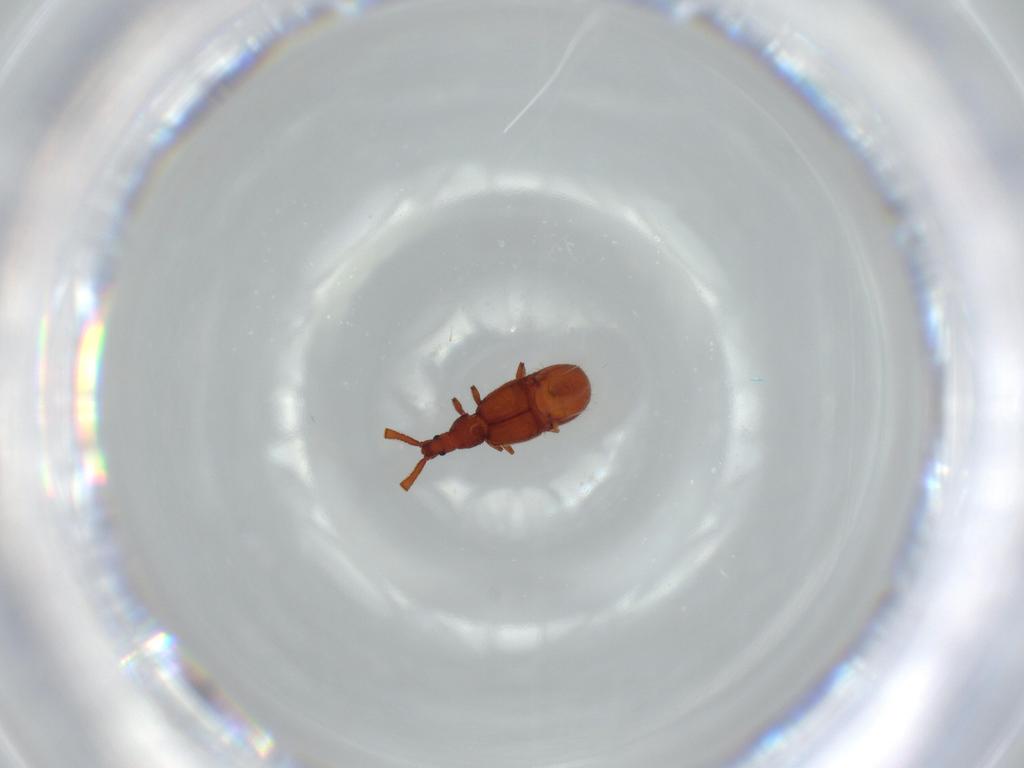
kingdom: Animalia
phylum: Arthropoda
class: Insecta
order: Coleoptera
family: Staphylinidae
